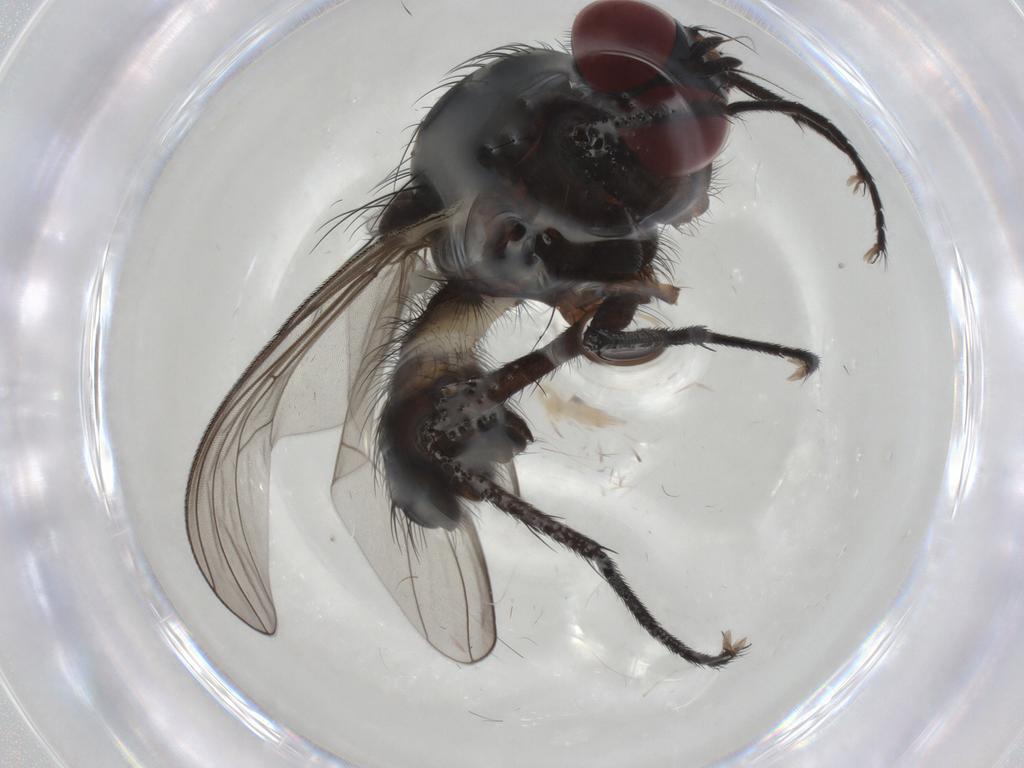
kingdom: Animalia
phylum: Arthropoda
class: Insecta
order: Diptera
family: Anthomyiidae
